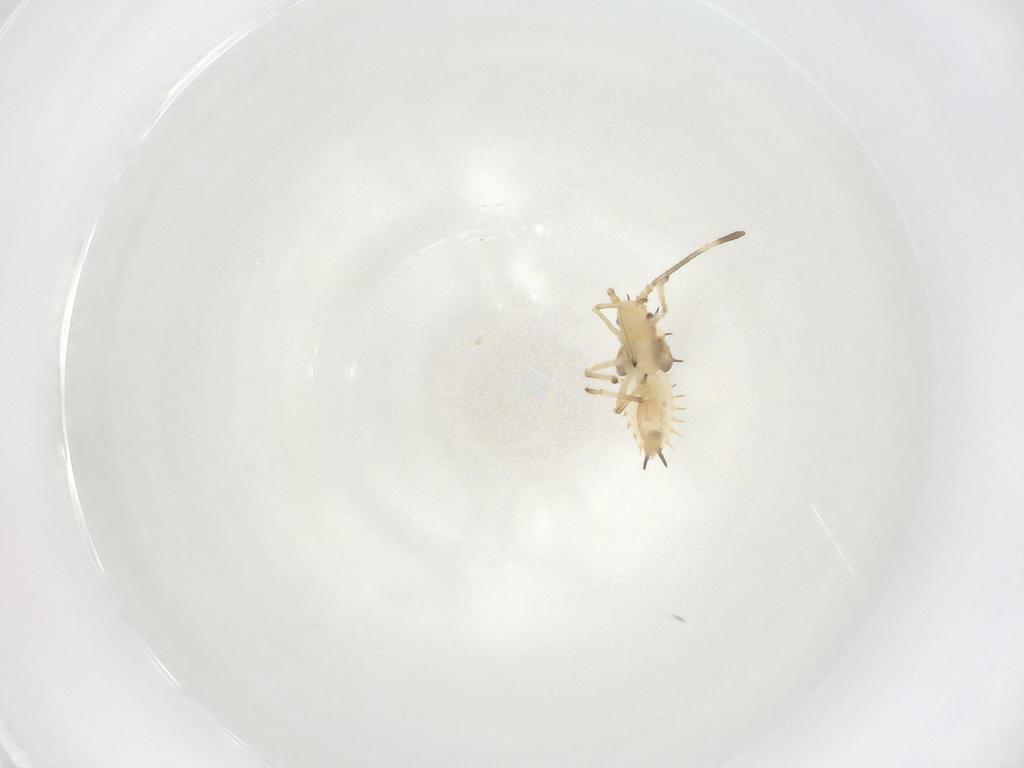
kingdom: Animalia
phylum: Arthropoda
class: Insecta
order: Hemiptera
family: Tingidae
